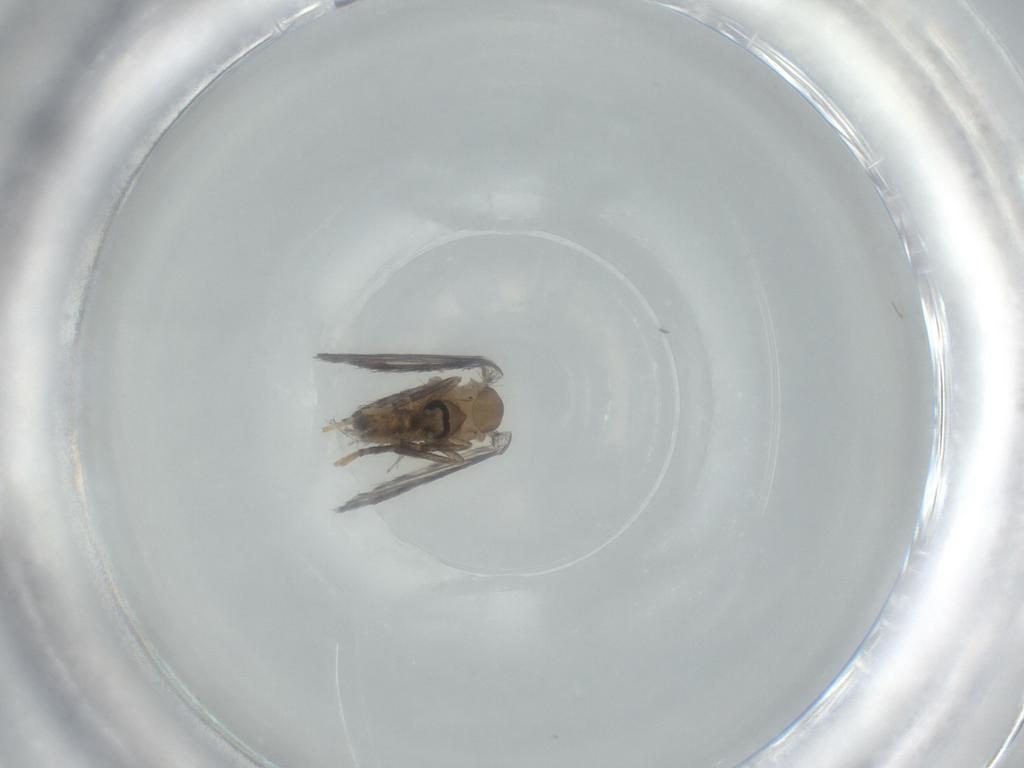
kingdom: Animalia
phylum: Arthropoda
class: Insecta
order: Diptera
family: Psychodidae
